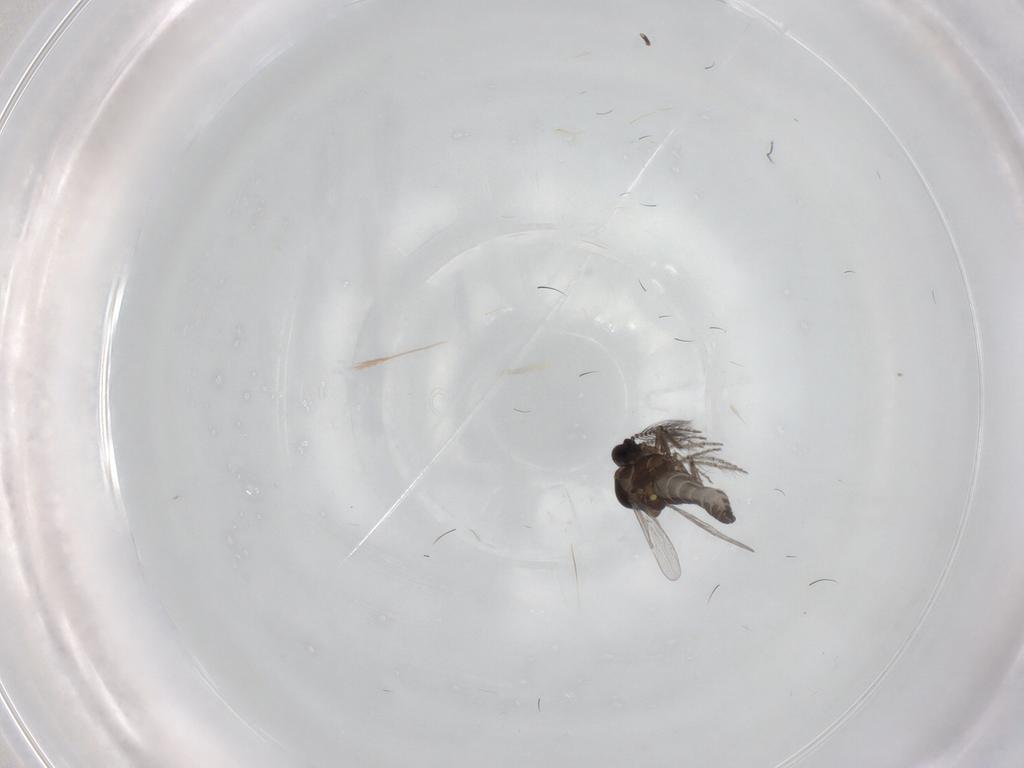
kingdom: Animalia
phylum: Arthropoda
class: Insecta
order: Diptera
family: Ceratopogonidae
